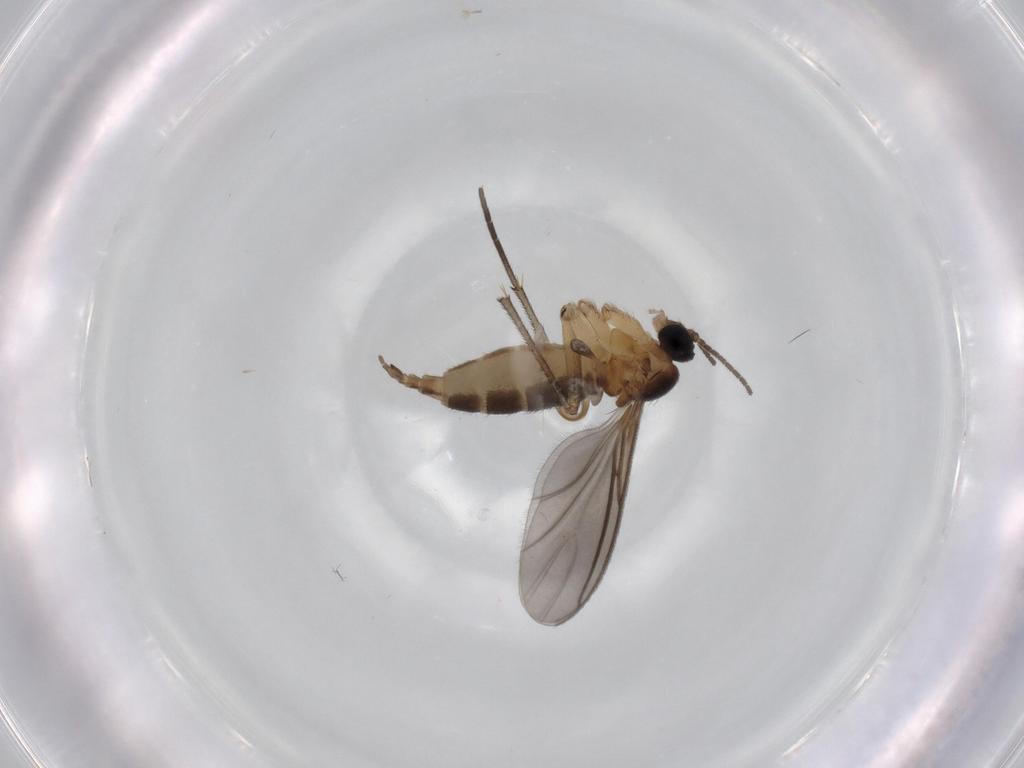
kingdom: Animalia
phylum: Arthropoda
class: Insecta
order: Diptera
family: Sciaridae
